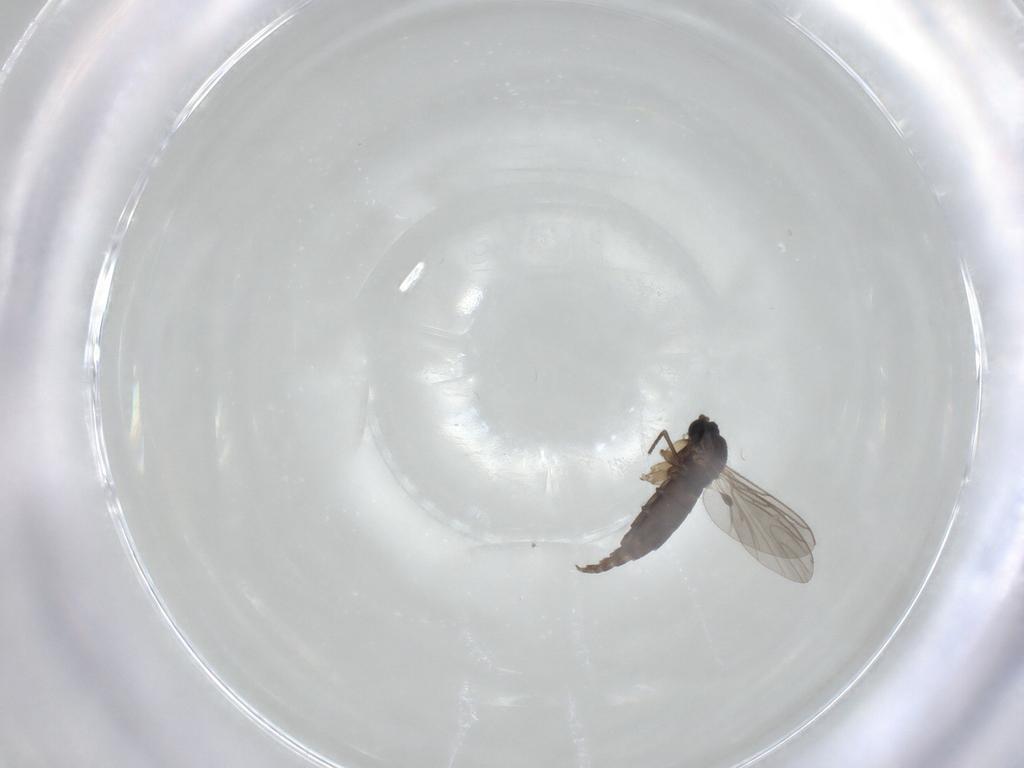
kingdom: Animalia
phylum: Arthropoda
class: Insecta
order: Diptera
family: Sciaridae
